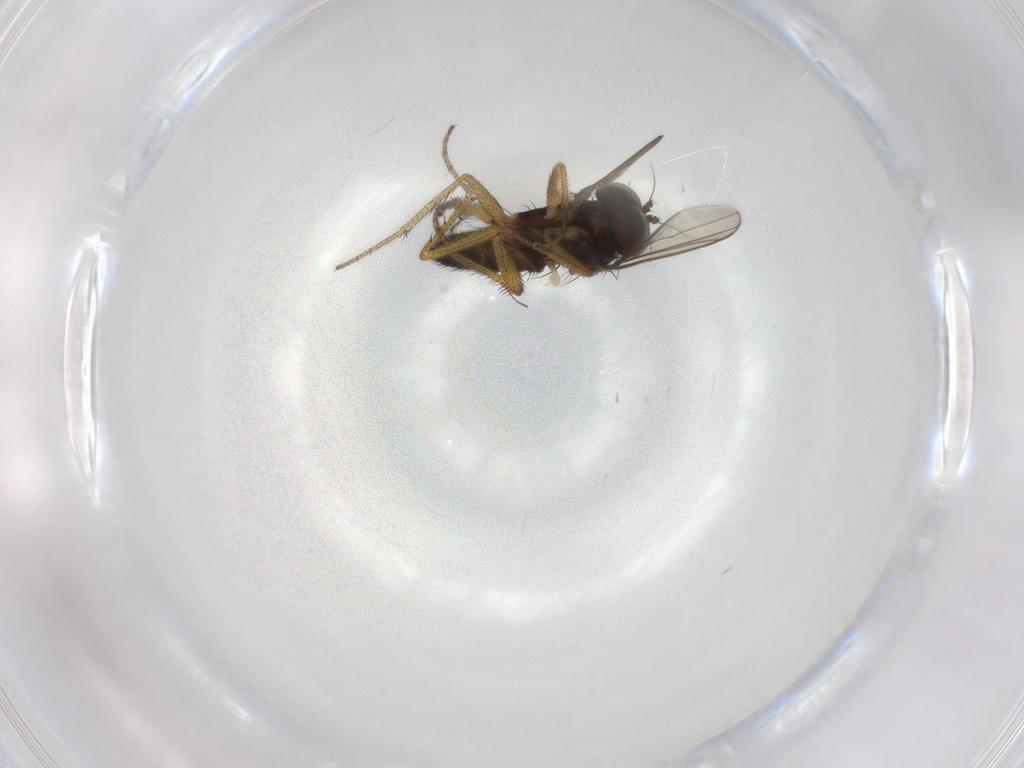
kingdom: Animalia
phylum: Arthropoda
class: Insecta
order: Diptera
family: Dolichopodidae
